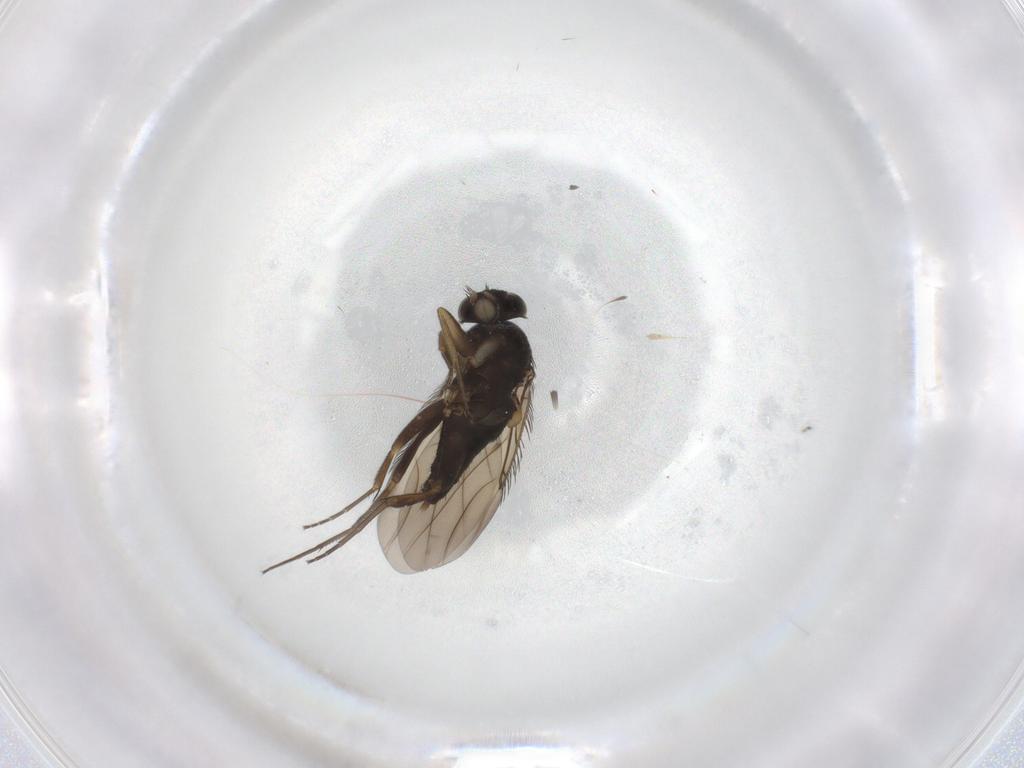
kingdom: Animalia
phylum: Arthropoda
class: Insecta
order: Diptera
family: Phoridae
